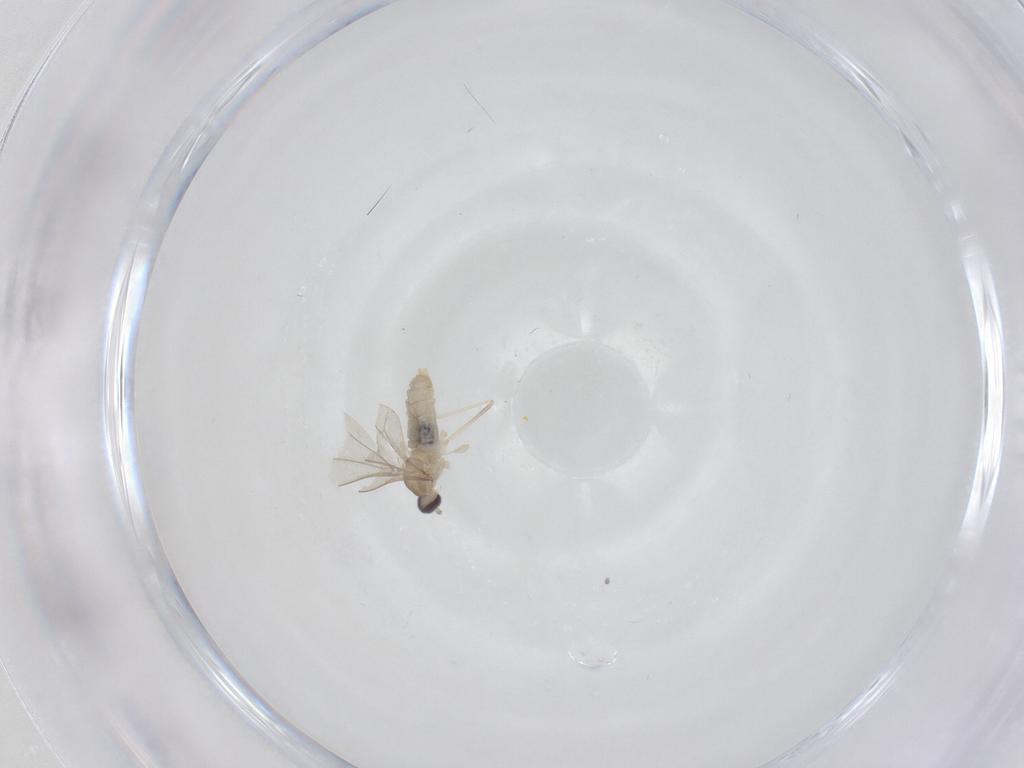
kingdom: Animalia
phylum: Arthropoda
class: Insecta
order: Diptera
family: Cecidomyiidae
